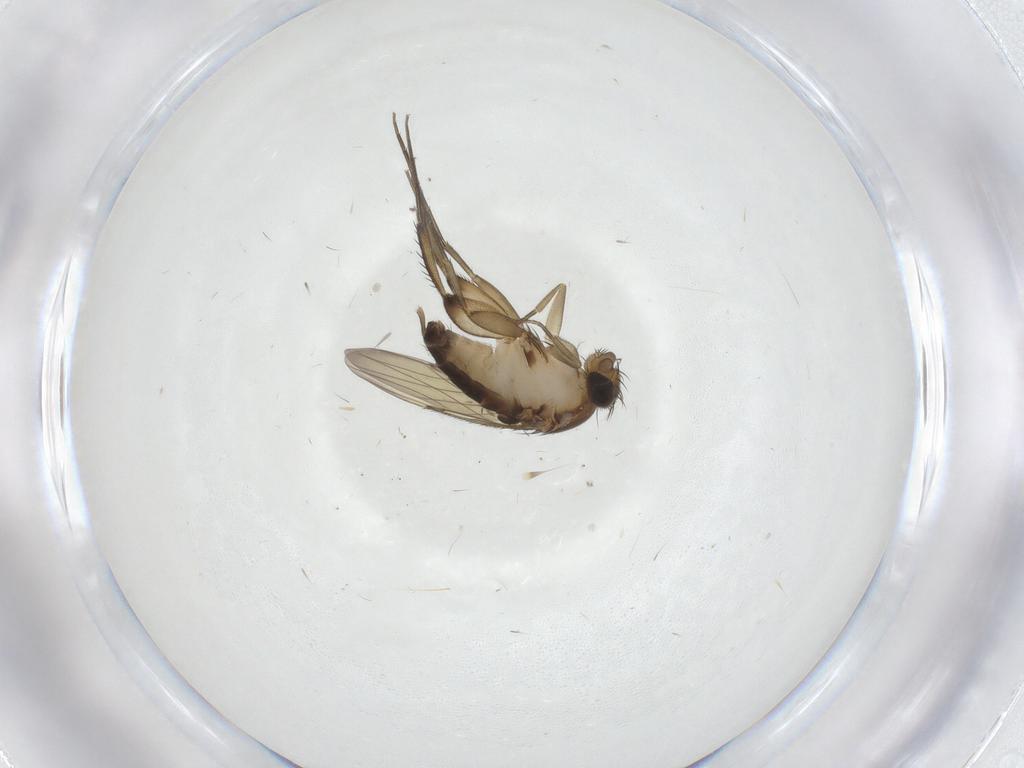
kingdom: Animalia
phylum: Arthropoda
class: Insecta
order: Diptera
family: Phoridae
